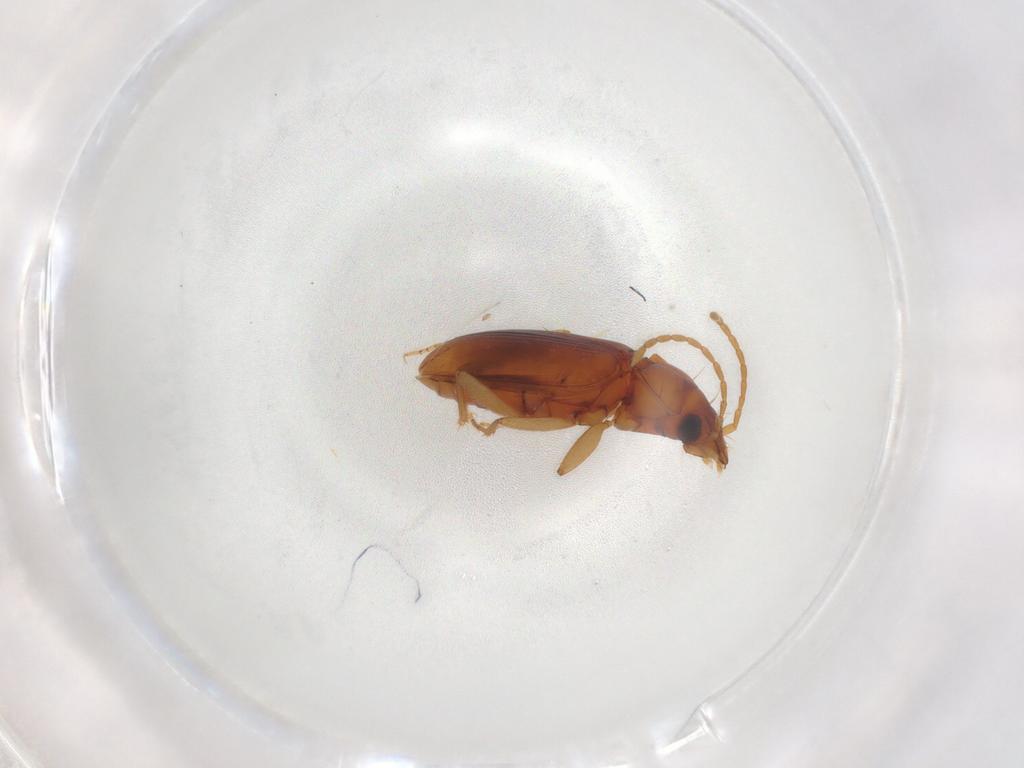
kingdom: Animalia
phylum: Arthropoda
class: Insecta
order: Coleoptera
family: Carabidae
